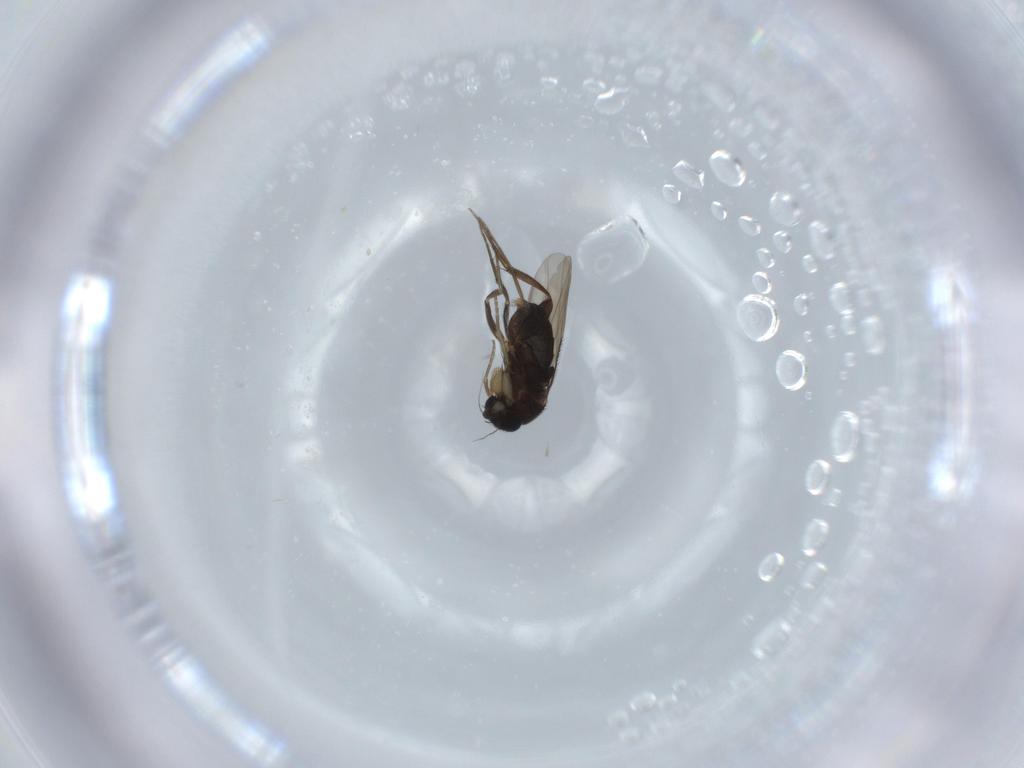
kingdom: Animalia
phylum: Arthropoda
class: Insecta
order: Diptera
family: Phoridae
